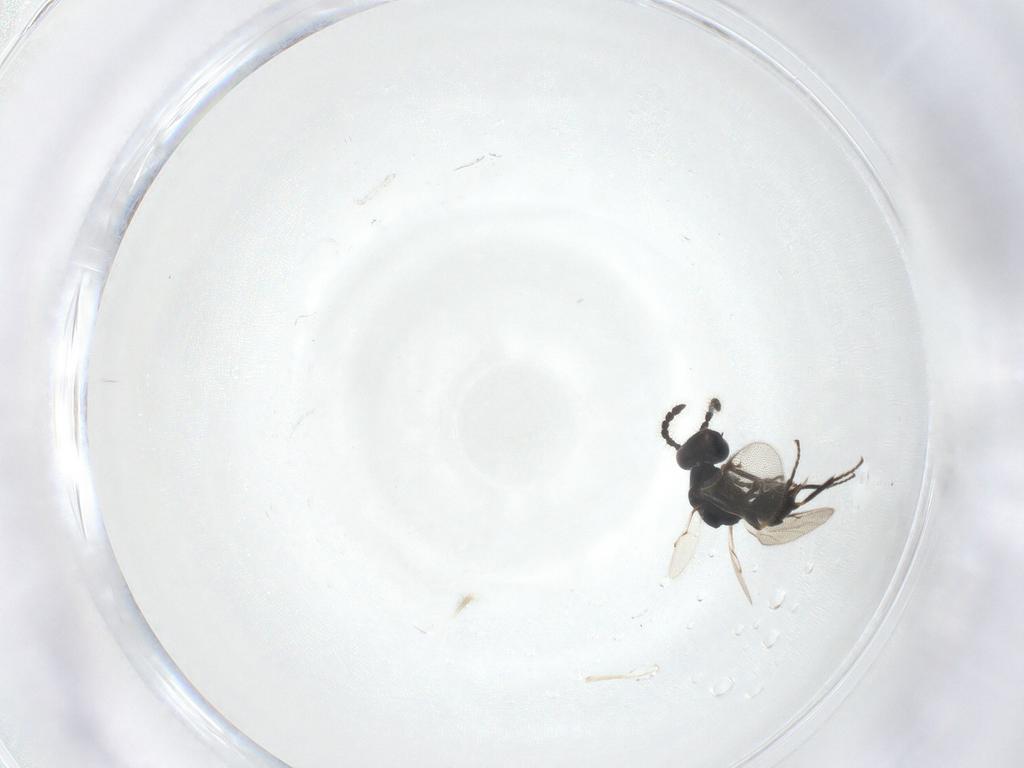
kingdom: Animalia
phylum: Arthropoda
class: Insecta
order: Hymenoptera
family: Eurytomidae
